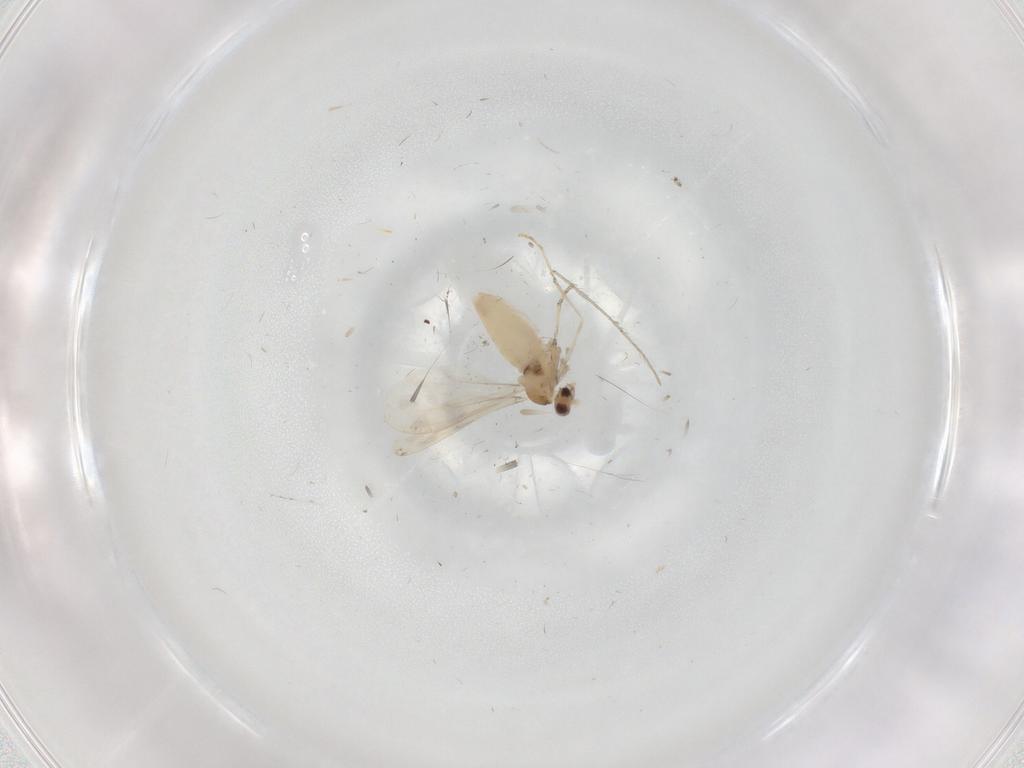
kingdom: Animalia
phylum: Arthropoda
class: Insecta
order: Diptera
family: Cecidomyiidae
